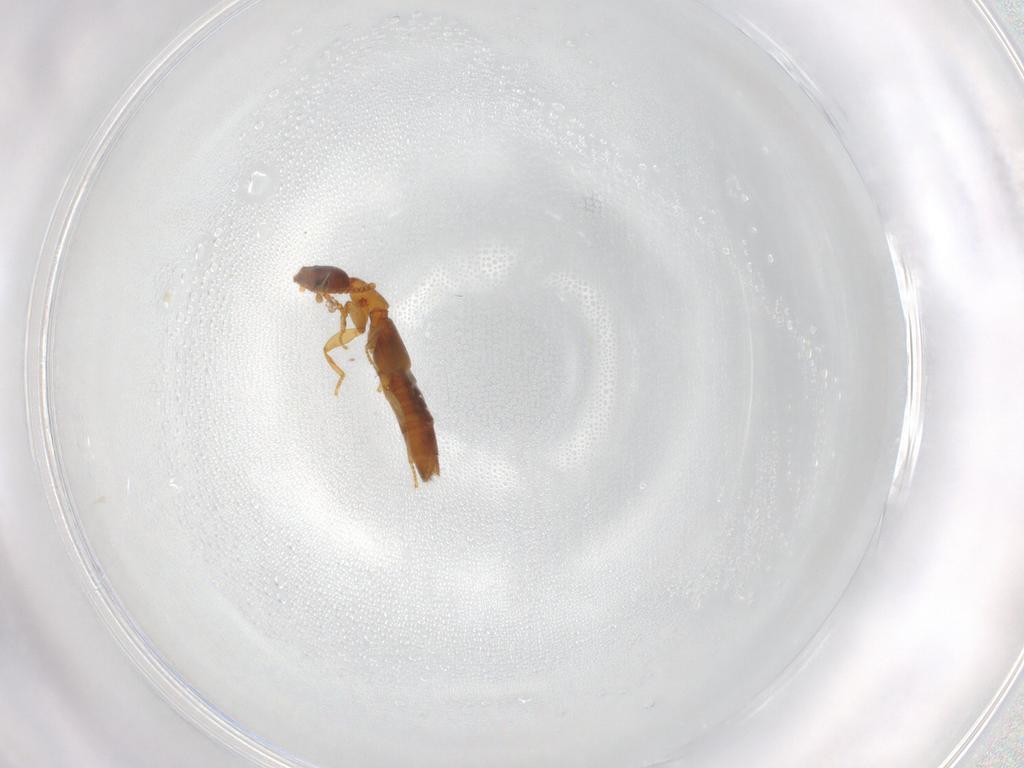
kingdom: Animalia
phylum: Arthropoda
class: Insecta
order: Coleoptera
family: Staphylinidae
